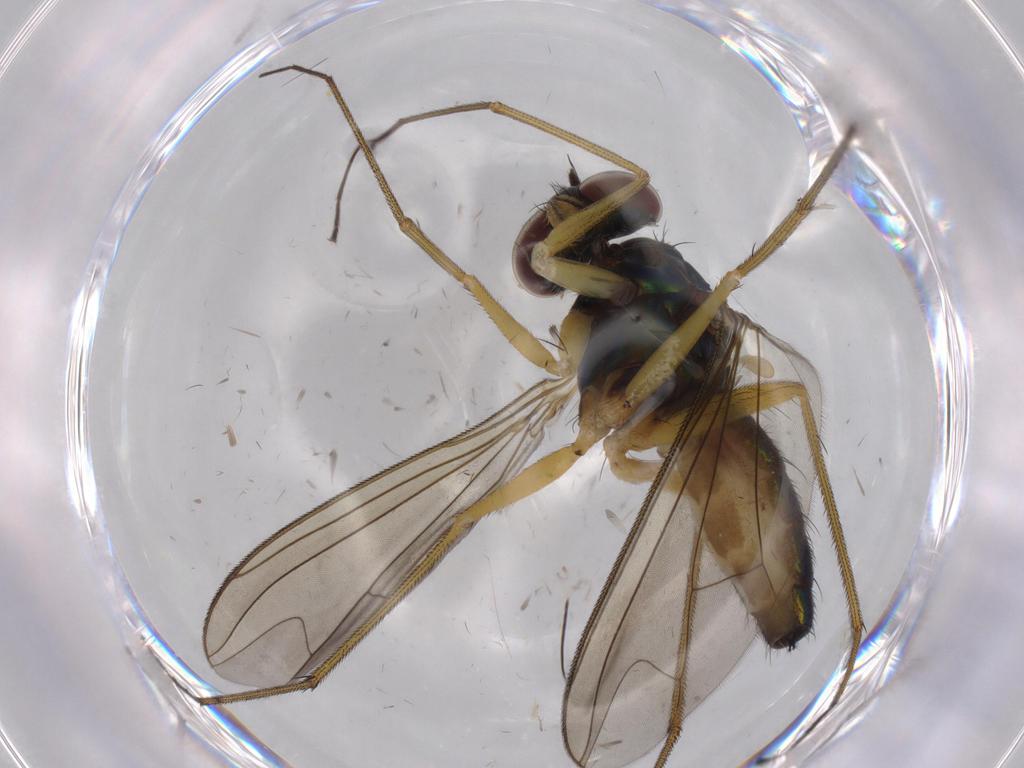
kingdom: Animalia
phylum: Arthropoda
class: Insecta
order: Diptera
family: Dolichopodidae
